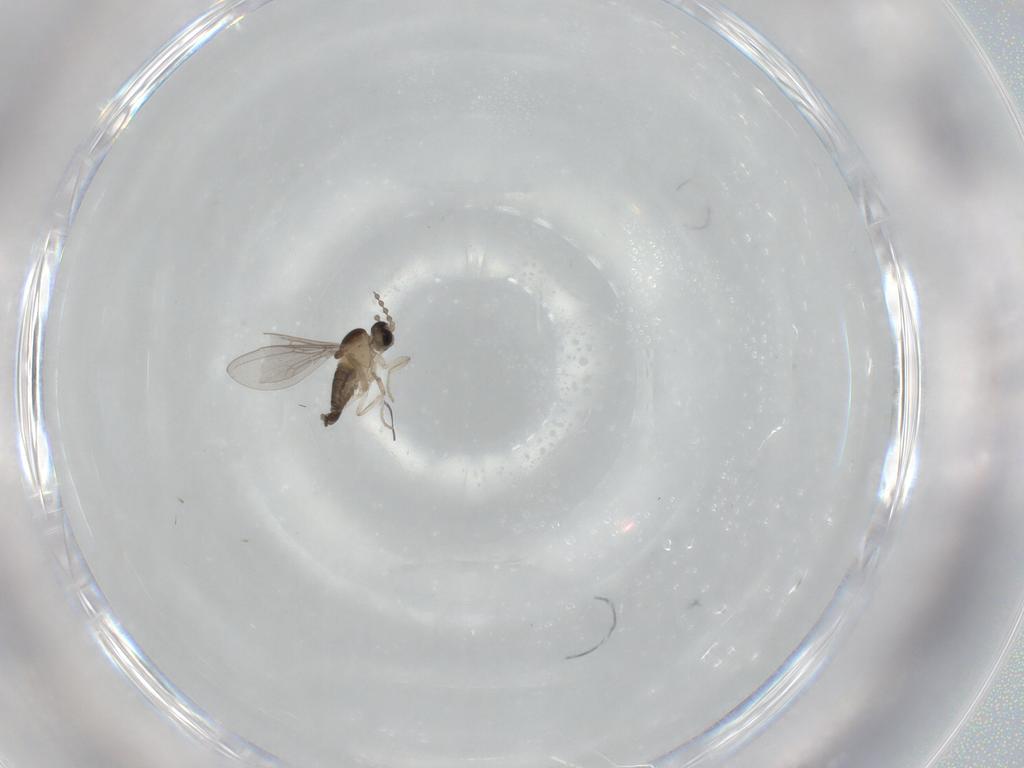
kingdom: Animalia
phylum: Arthropoda
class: Insecta
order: Diptera
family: Cecidomyiidae
